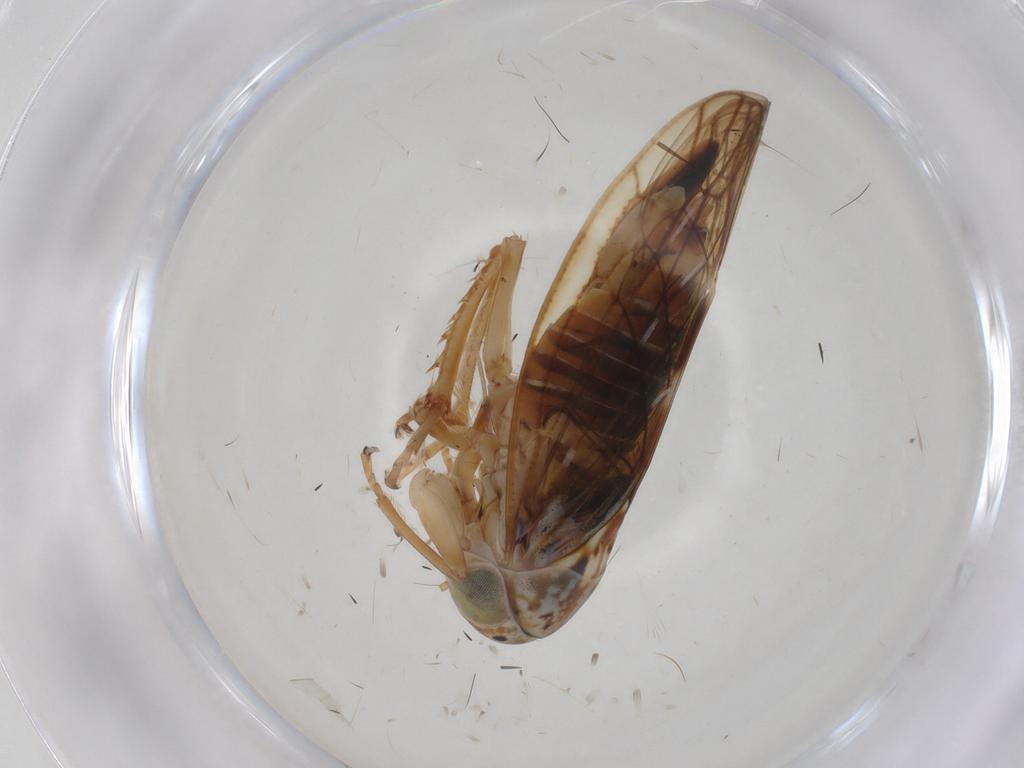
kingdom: Animalia
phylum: Arthropoda
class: Insecta
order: Hemiptera
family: Cicadellidae
